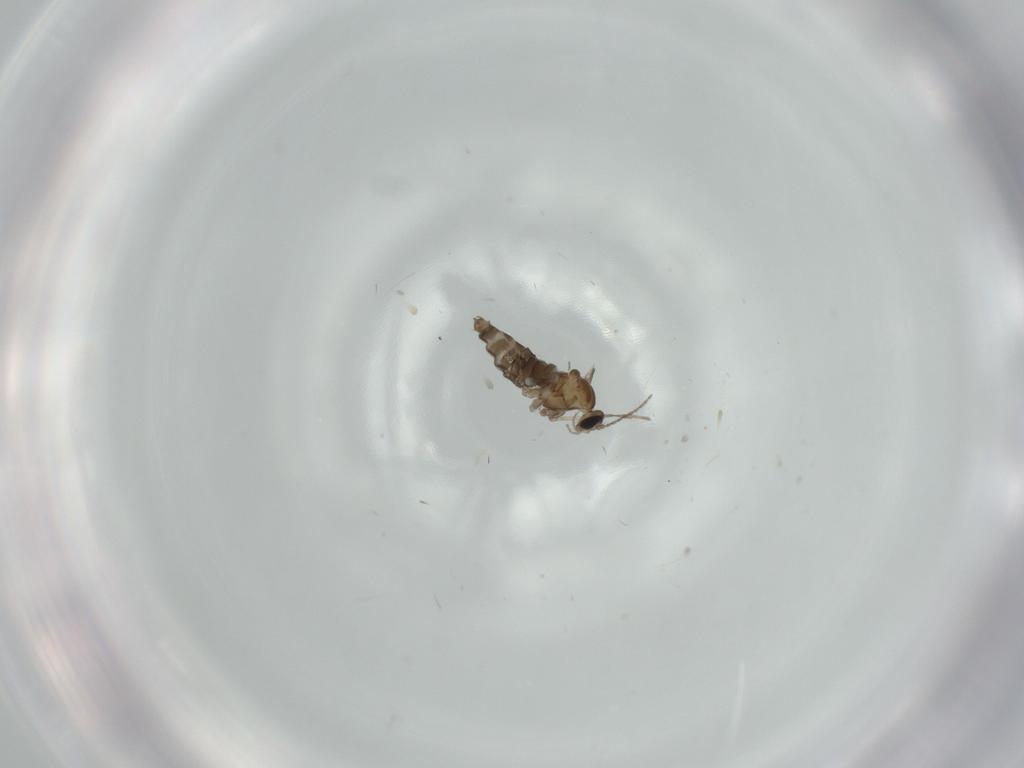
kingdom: Animalia
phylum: Arthropoda
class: Insecta
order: Diptera
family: Cecidomyiidae
